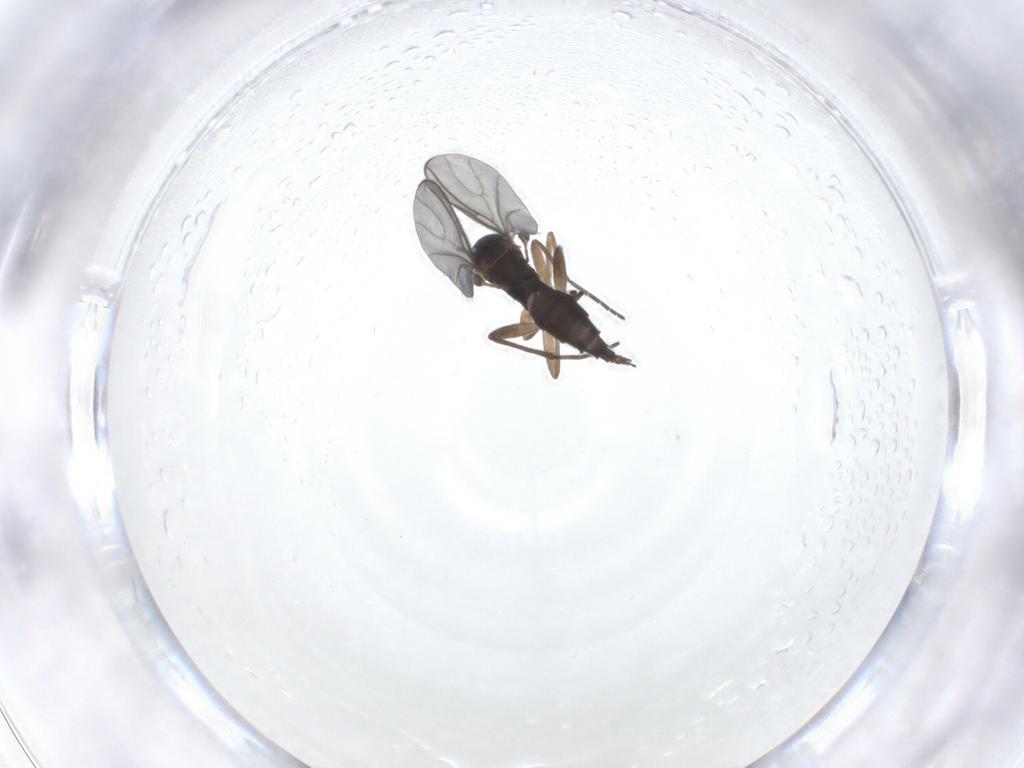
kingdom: Animalia
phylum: Arthropoda
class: Insecta
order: Diptera
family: Sciaridae
